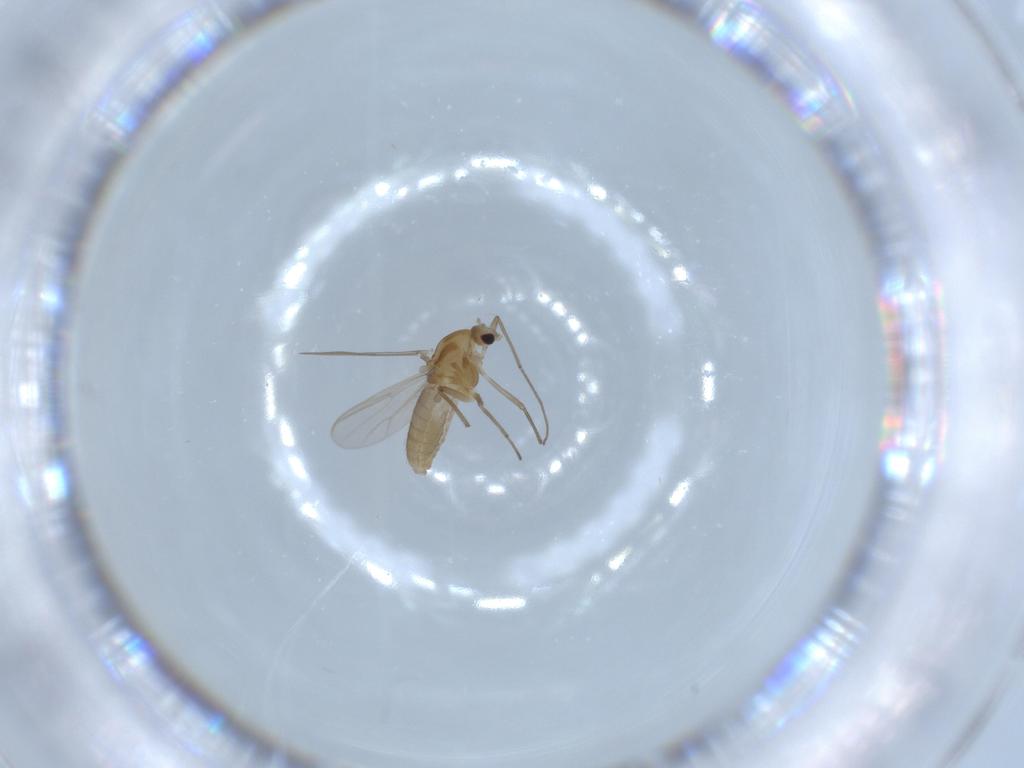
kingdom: Animalia
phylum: Arthropoda
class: Insecta
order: Diptera
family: Chironomidae
